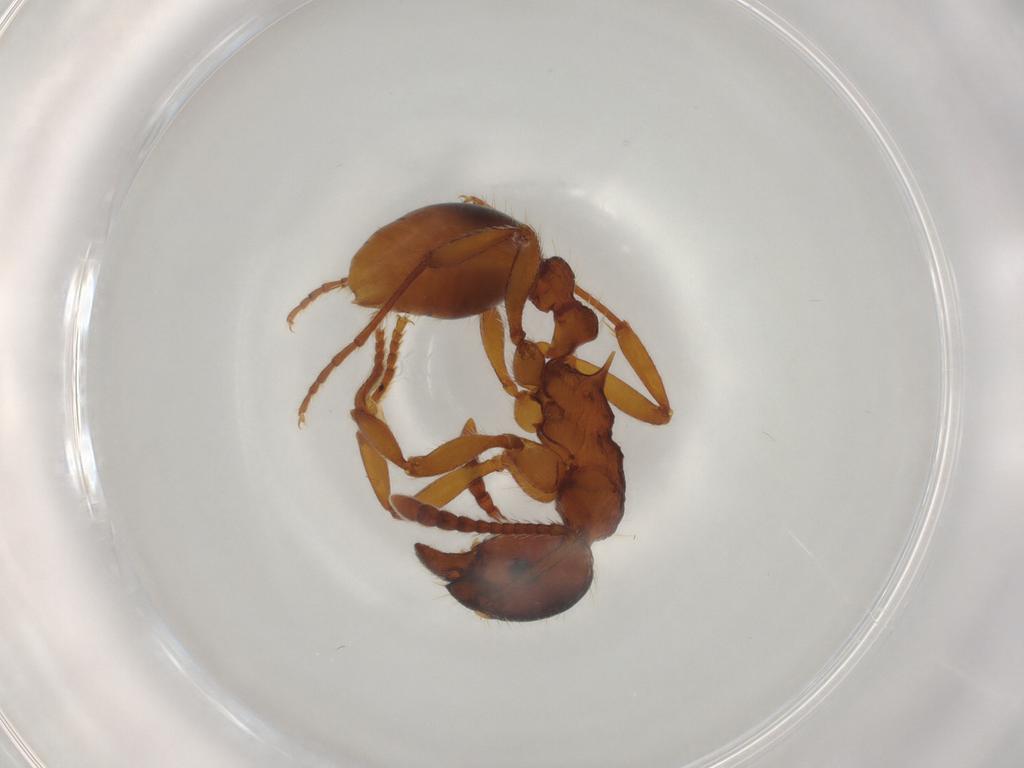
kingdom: Animalia
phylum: Arthropoda
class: Insecta
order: Hymenoptera
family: Formicidae
